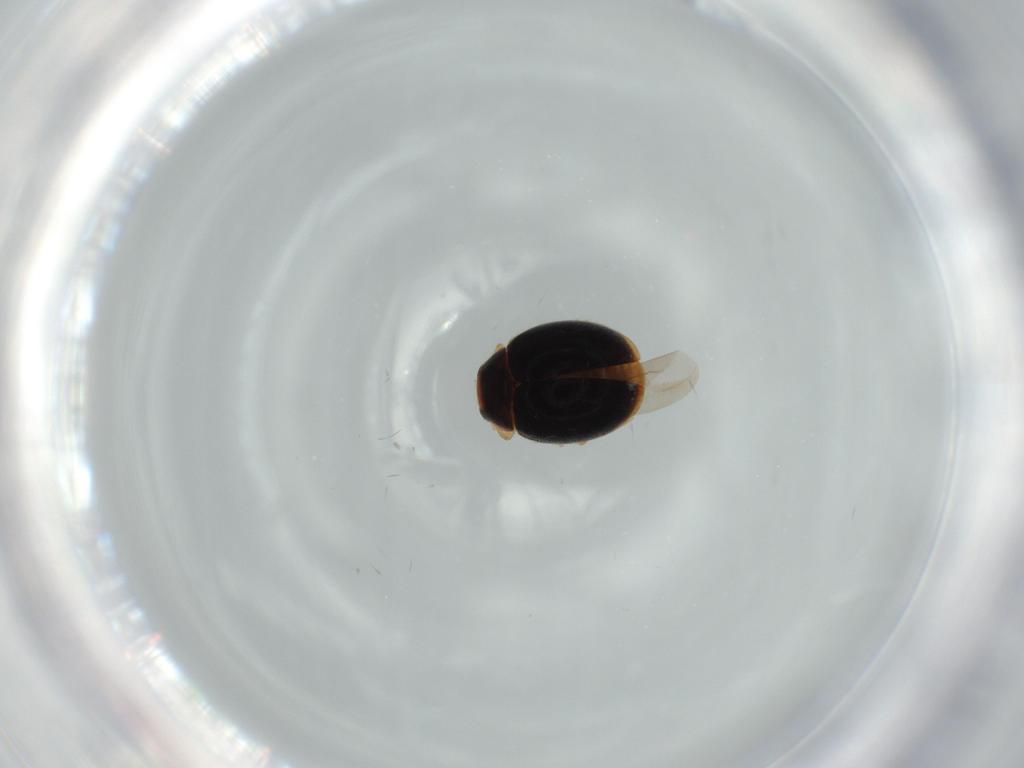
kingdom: Animalia
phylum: Arthropoda
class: Insecta
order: Coleoptera
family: Coccinellidae
